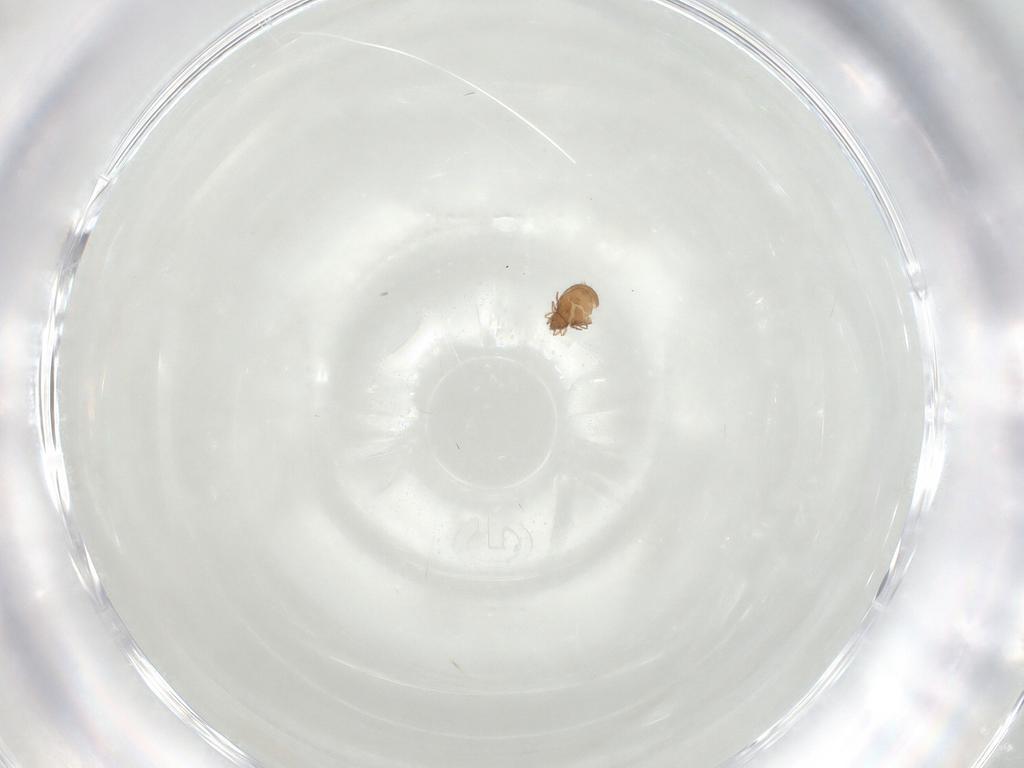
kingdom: Animalia
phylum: Arthropoda
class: Arachnida
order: Sarcoptiformes
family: Oribatulidae
